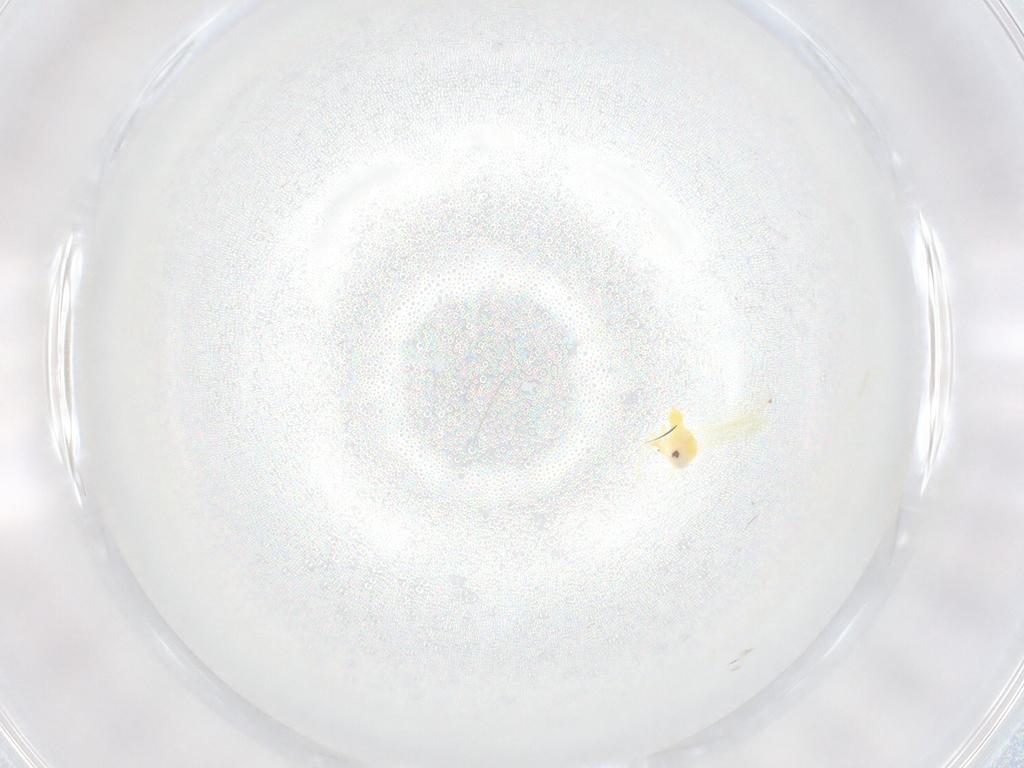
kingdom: Animalia
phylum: Arthropoda
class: Insecta
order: Hemiptera
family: Aleyrodidae
